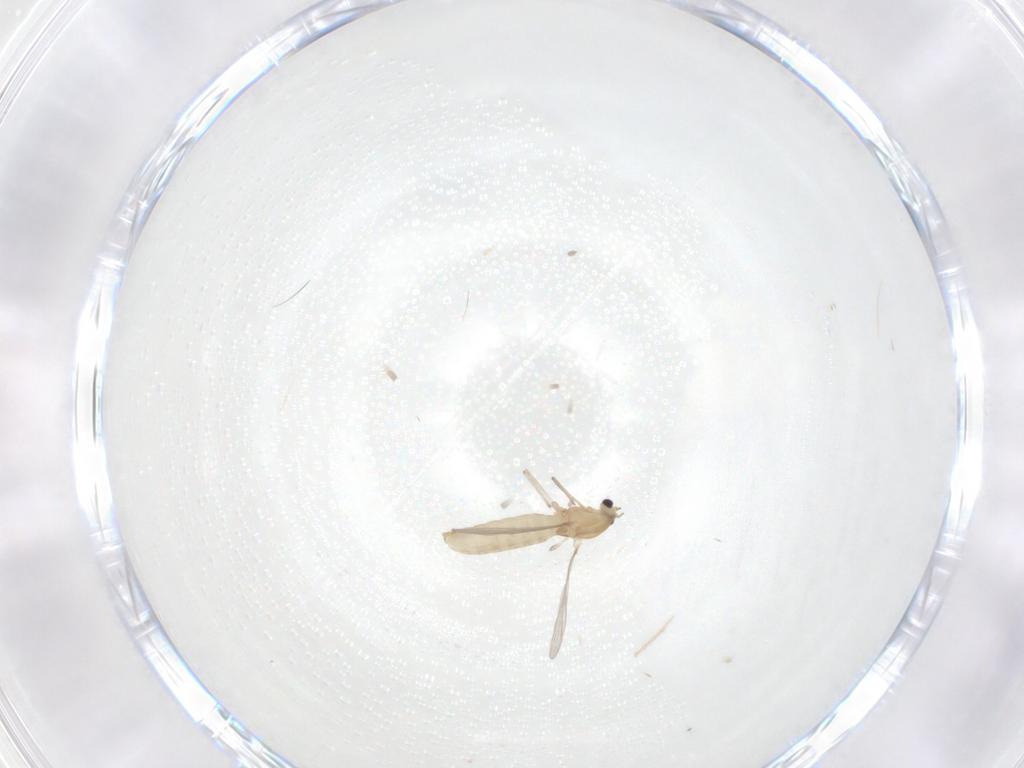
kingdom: Animalia
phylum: Arthropoda
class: Insecta
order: Diptera
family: Chironomidae
